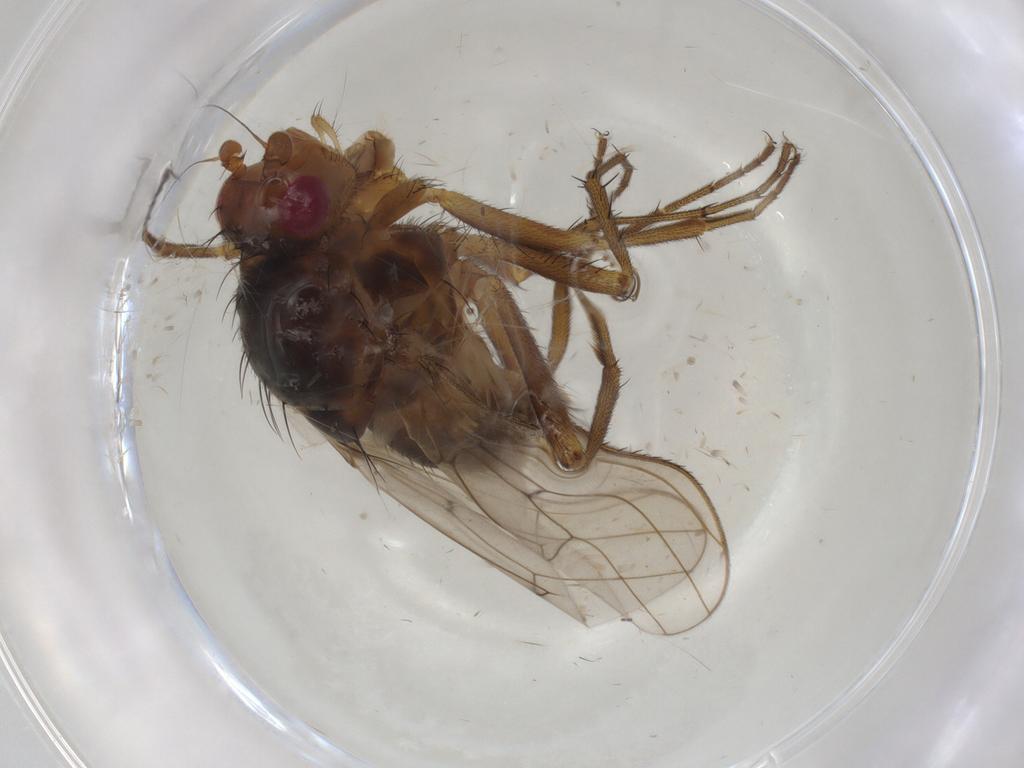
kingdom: Animalia
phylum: Arthropoda
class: Insecta
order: Diptera
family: Heleomyzidae
